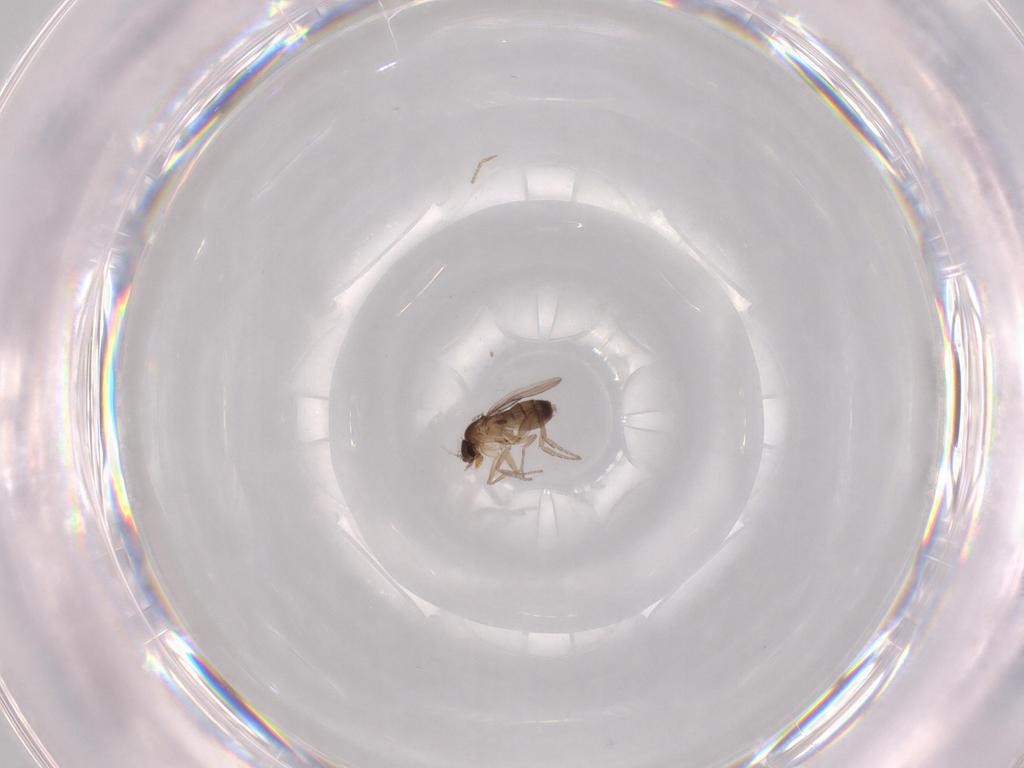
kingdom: Animalia
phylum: Arthropoda
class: Insecta
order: Diptera
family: Phoridae
